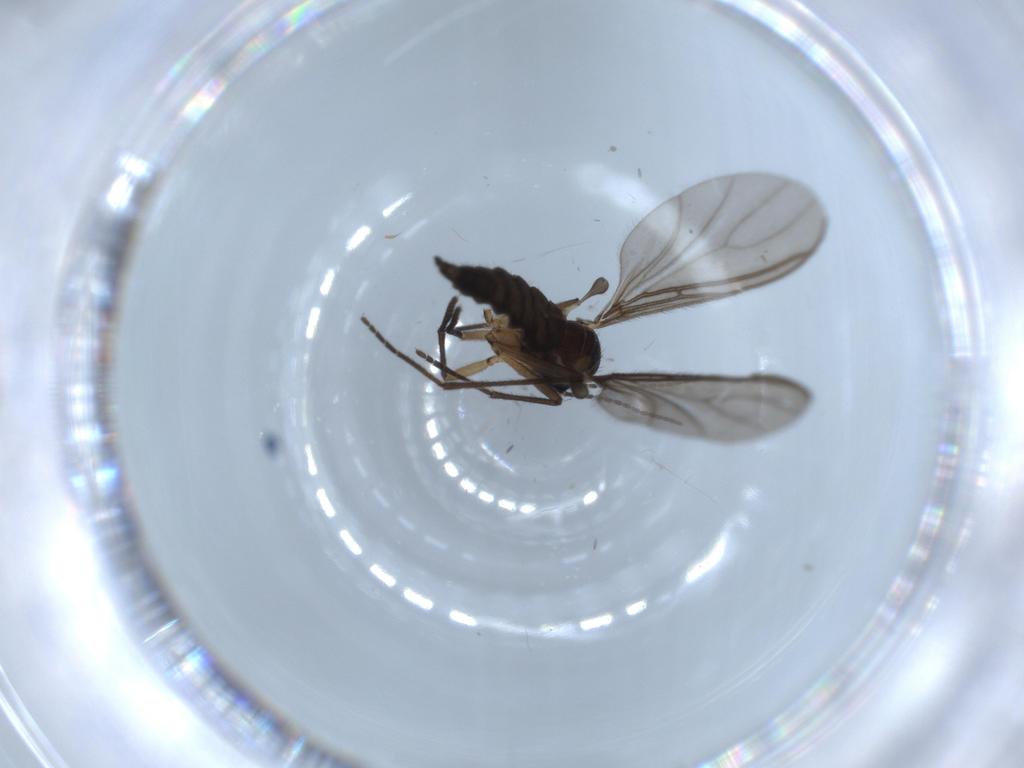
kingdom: Animalia
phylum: Arthropoda
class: Insecta
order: Diptera
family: Sciaridae
